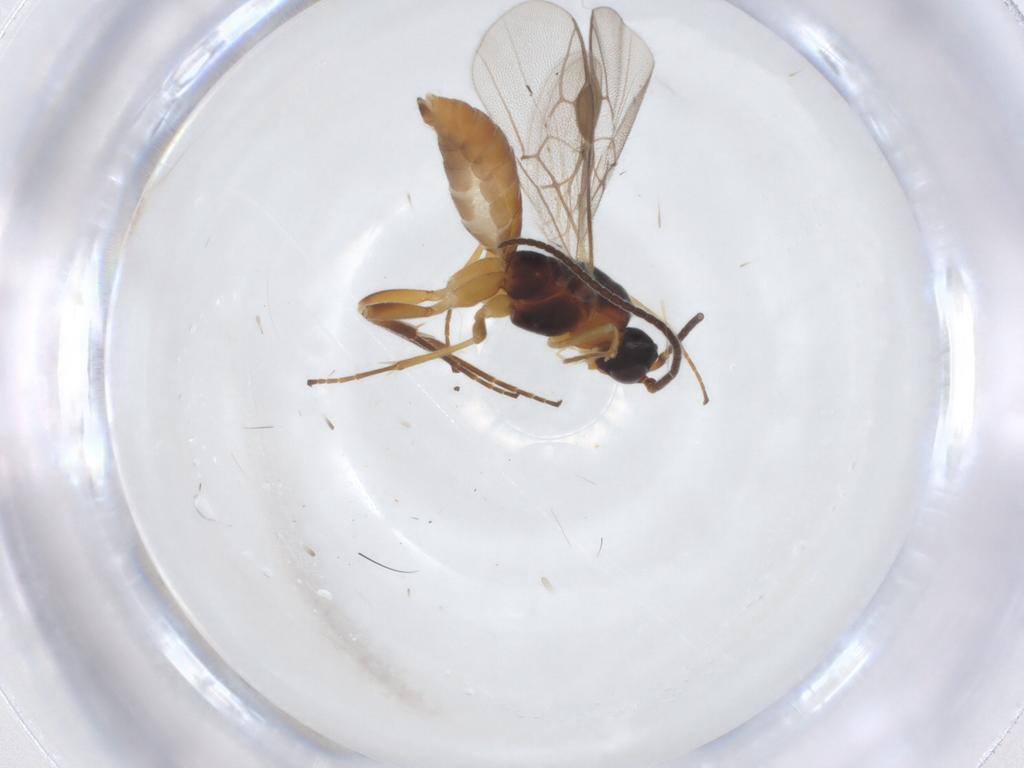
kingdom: Animalia
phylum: Arthropoda
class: Insecta
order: Hymenoptera
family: Braconidae
